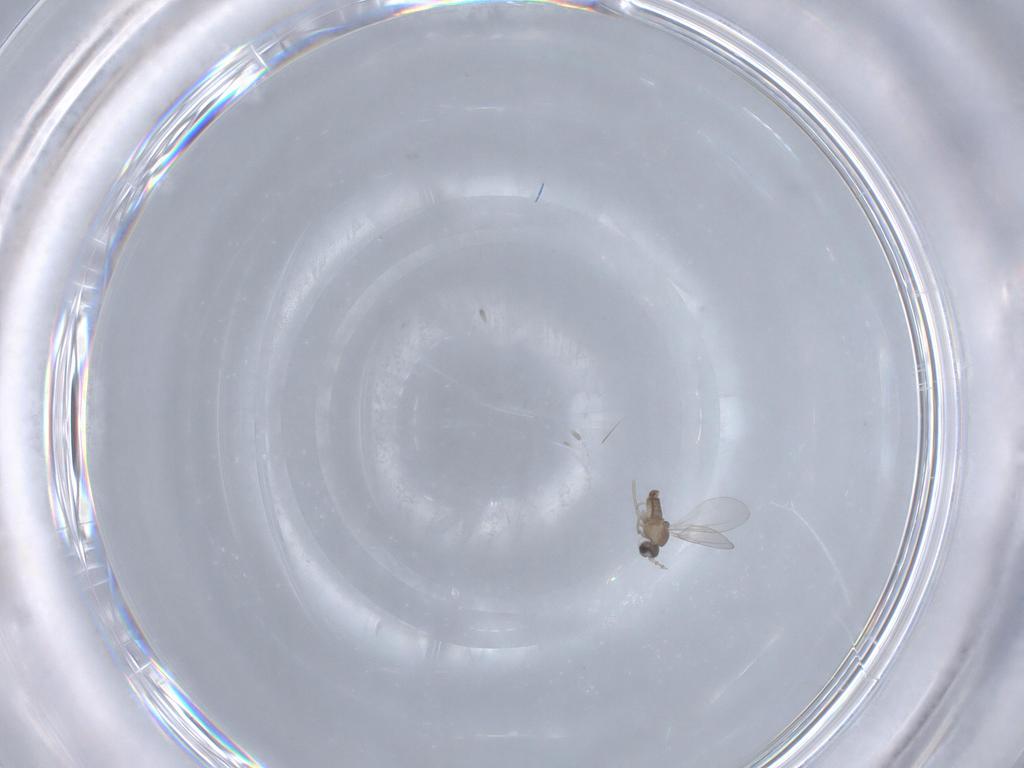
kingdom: Animalia
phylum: Arthropoda
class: Insecta
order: Diptera
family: Cecidomyiidae
